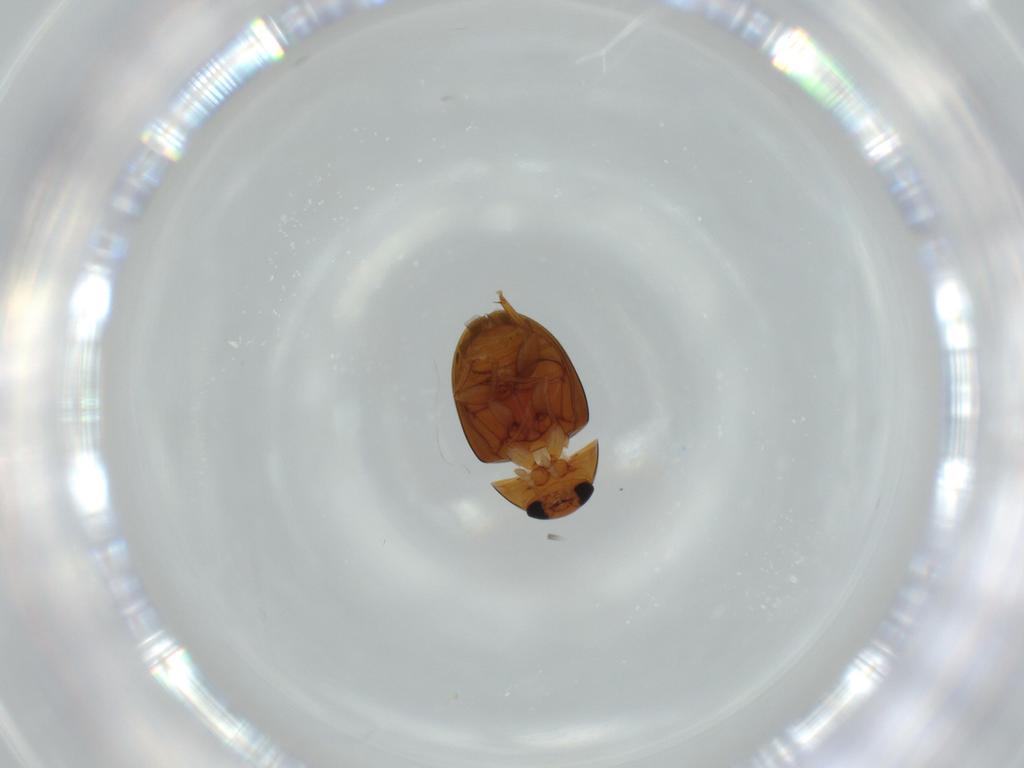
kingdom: Animalia
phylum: Arthropoda
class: Insecta
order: Coleoptera
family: Phalacridae
